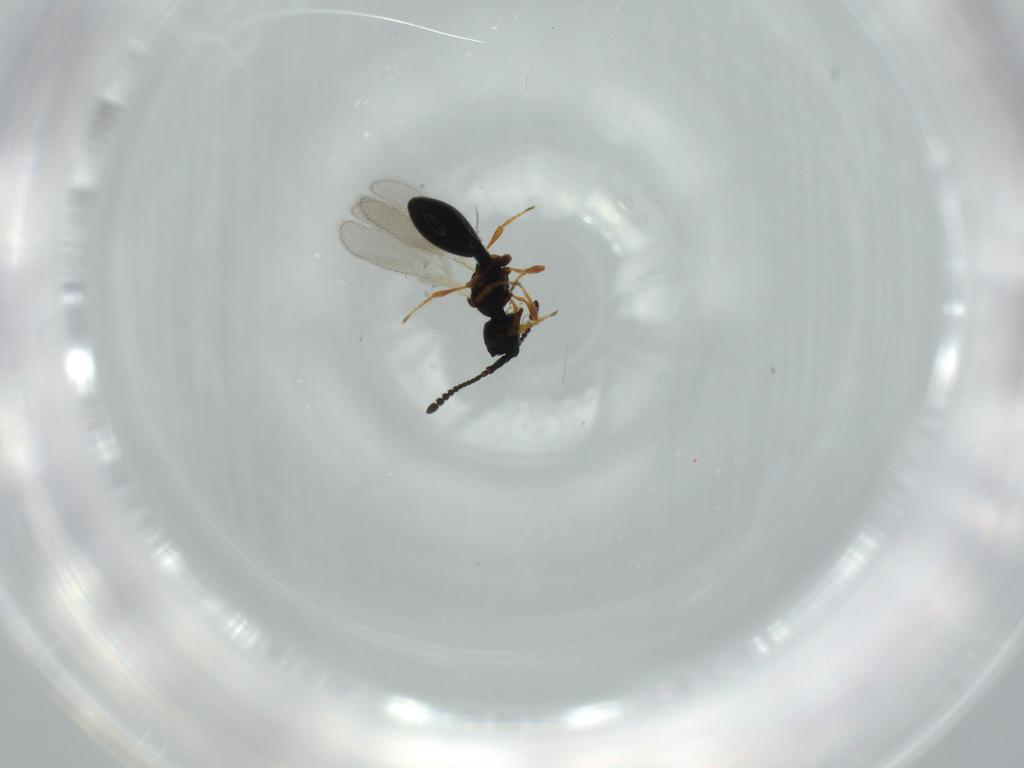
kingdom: Animalia
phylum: Arthropoda
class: Insecta
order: Hymenoptera
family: Diapriidae
